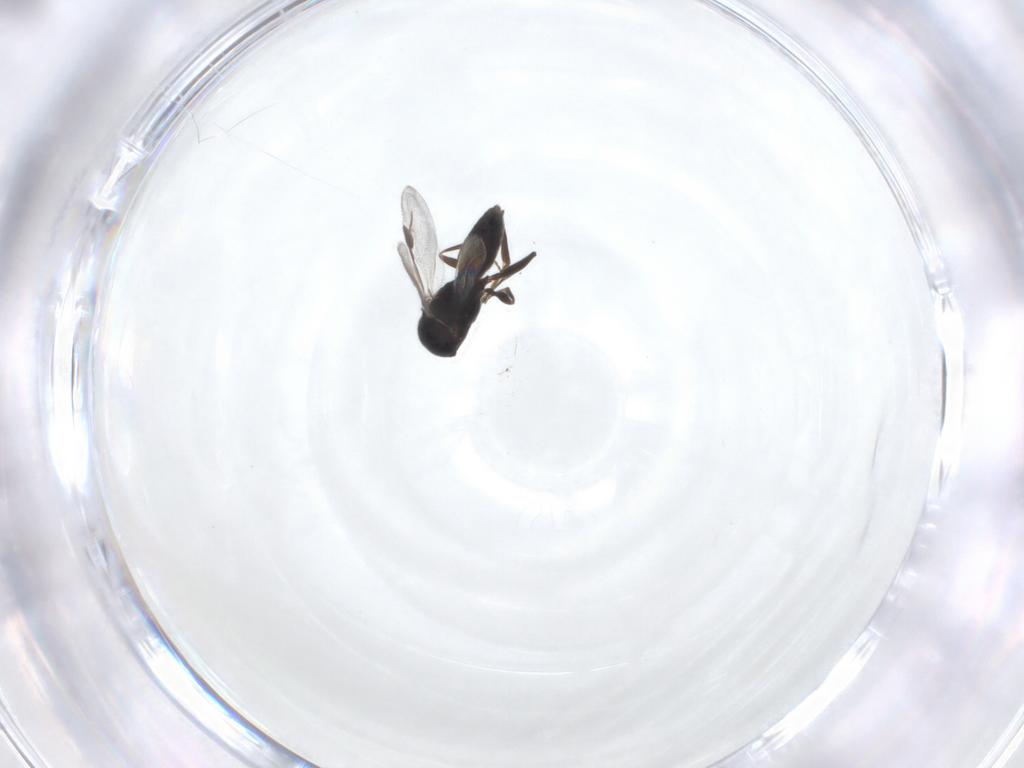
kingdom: Animalia
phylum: Arthropoda
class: Insecta
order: Hymenoptera
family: Megaspilidae
